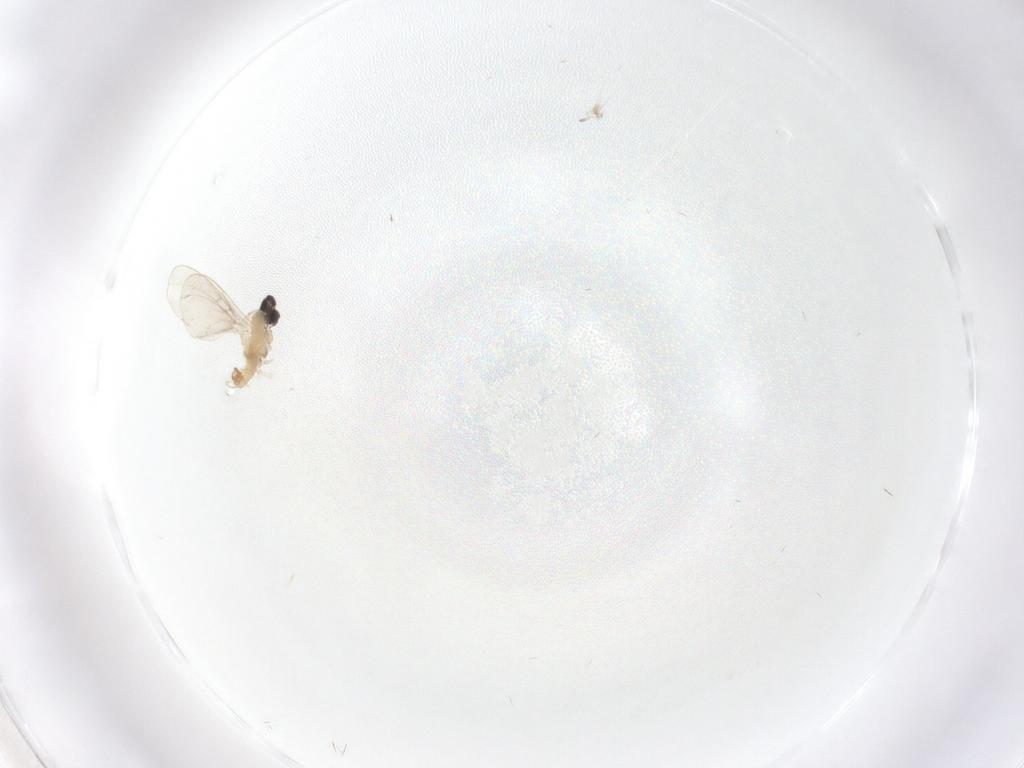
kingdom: Animalia
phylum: Arthropoda
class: Insecta
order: Diptera
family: Cecidomyiidae
